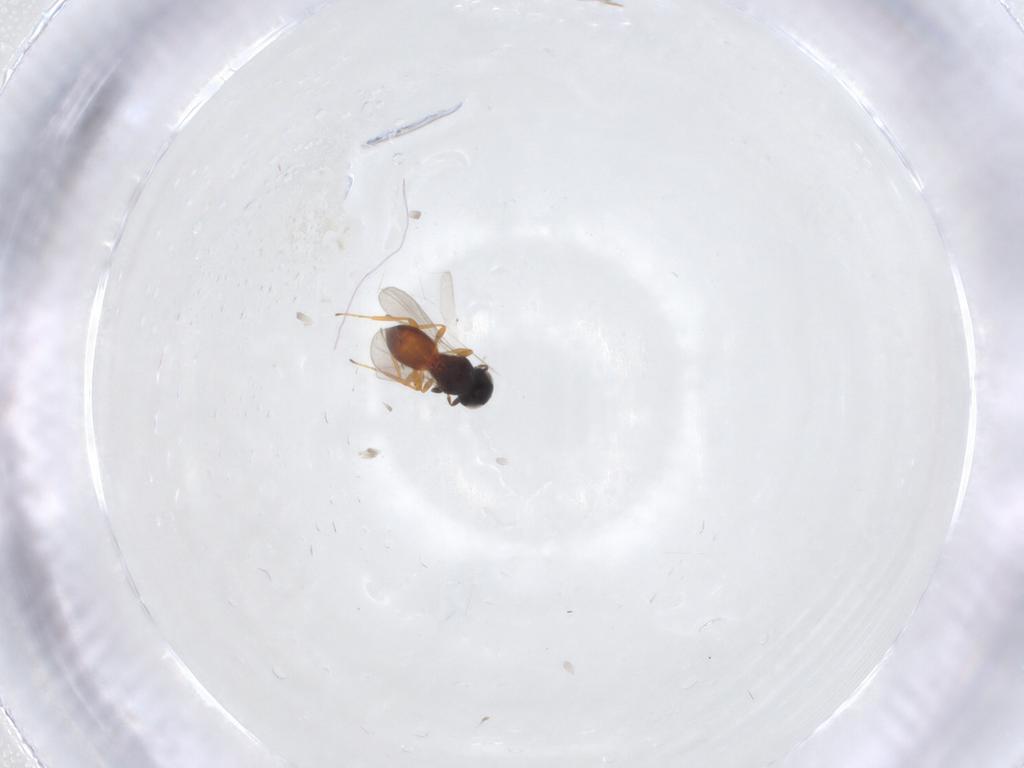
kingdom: Animalia
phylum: Arthropoda
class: Insecta
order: Hymenoptera
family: Platygastridae
